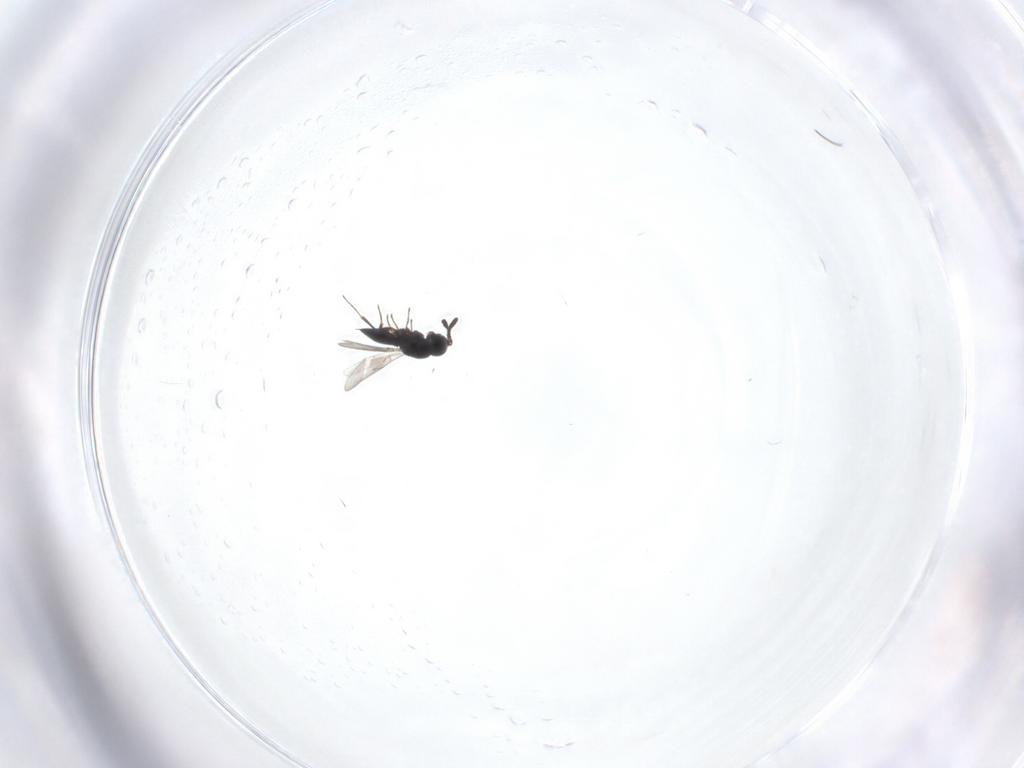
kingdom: Animalia
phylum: Arthropoda
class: Insecta
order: Hymenoptera
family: Scelionidae
